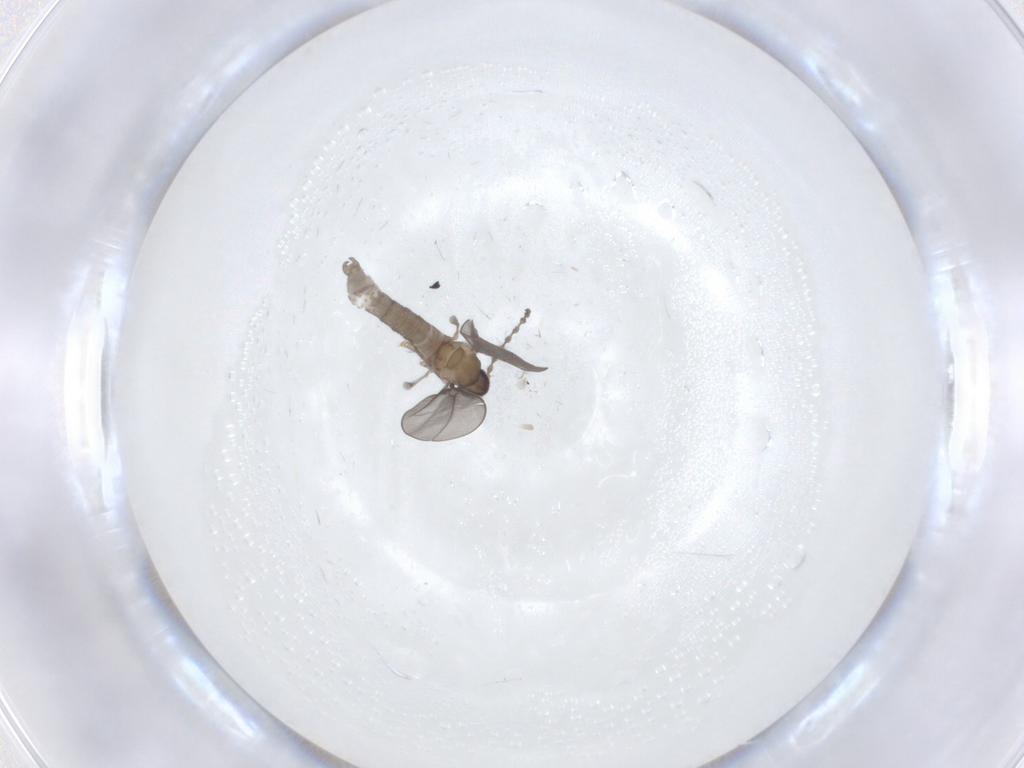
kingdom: Animalia
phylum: Arthropoda
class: Insecta
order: Diptera
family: Cecidomyiidae
